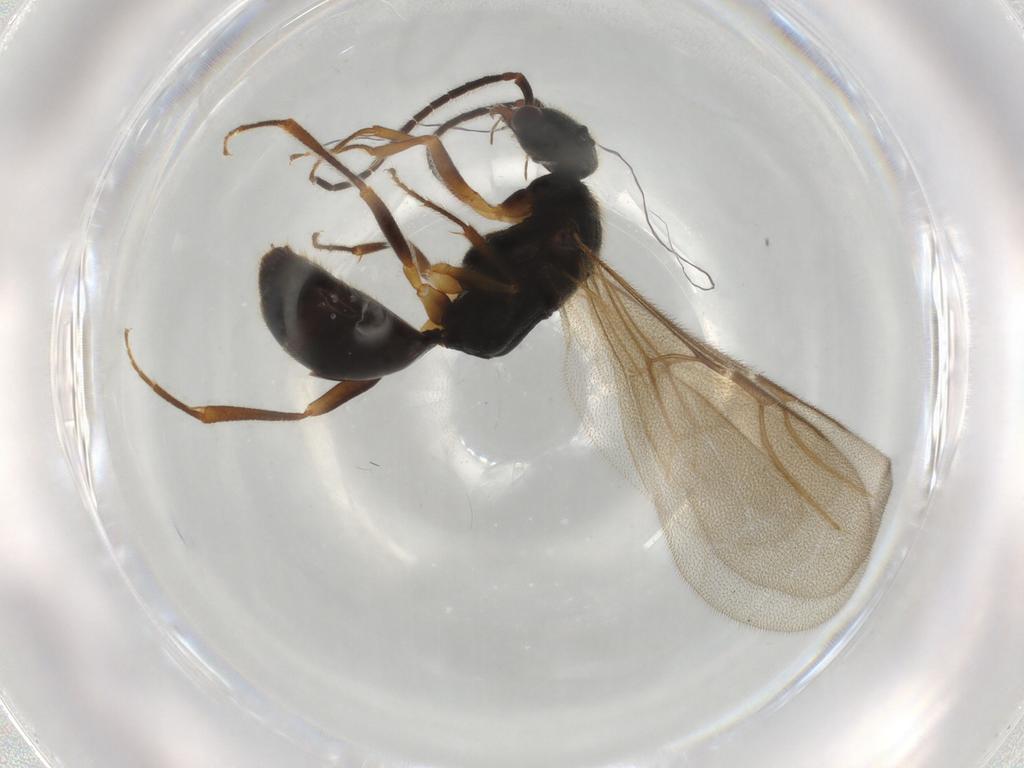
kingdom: Animalia
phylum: Arthropoda
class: Insecta
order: Hymenoptera
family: Bethylidae
